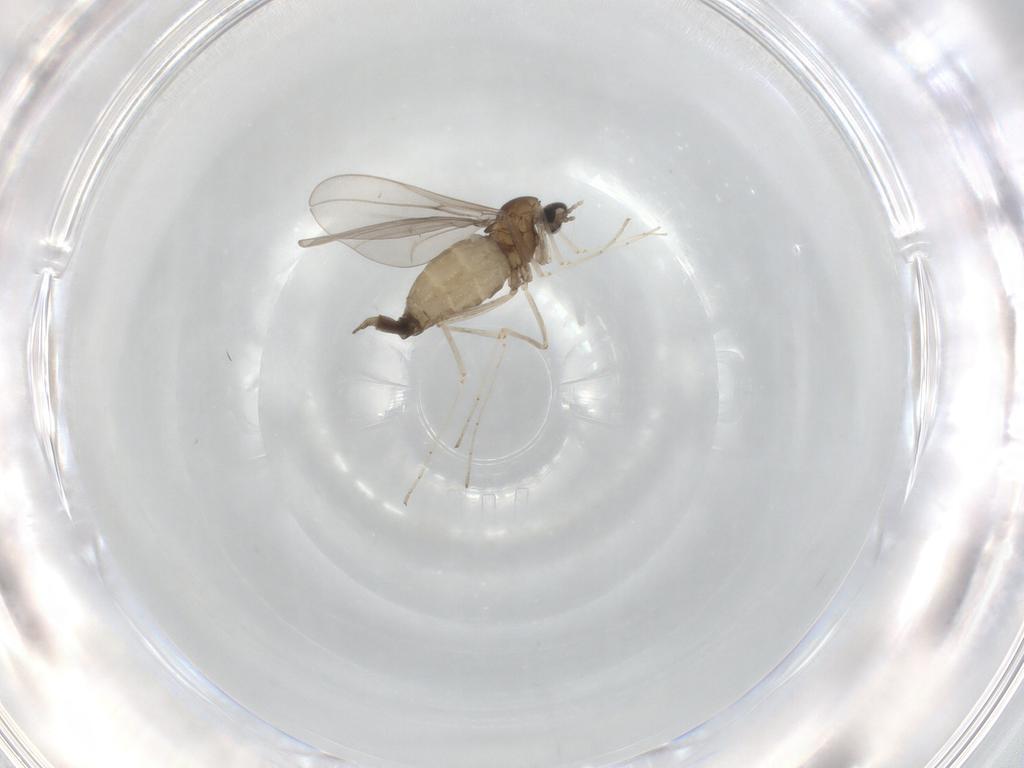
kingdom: Animalia
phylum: Arthropoda
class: Insecta
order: Diptera
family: Cecidomyiidae
